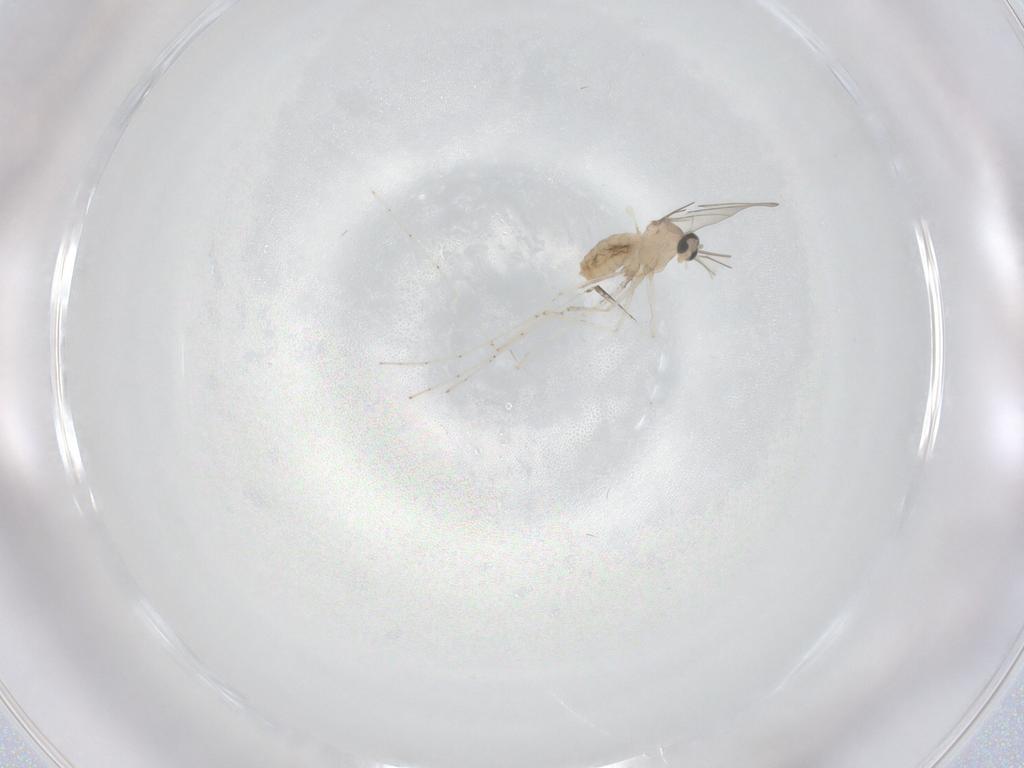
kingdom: Animalia
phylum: Arthropoda
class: Insecta
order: Diptera
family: Cecidomyiidae
